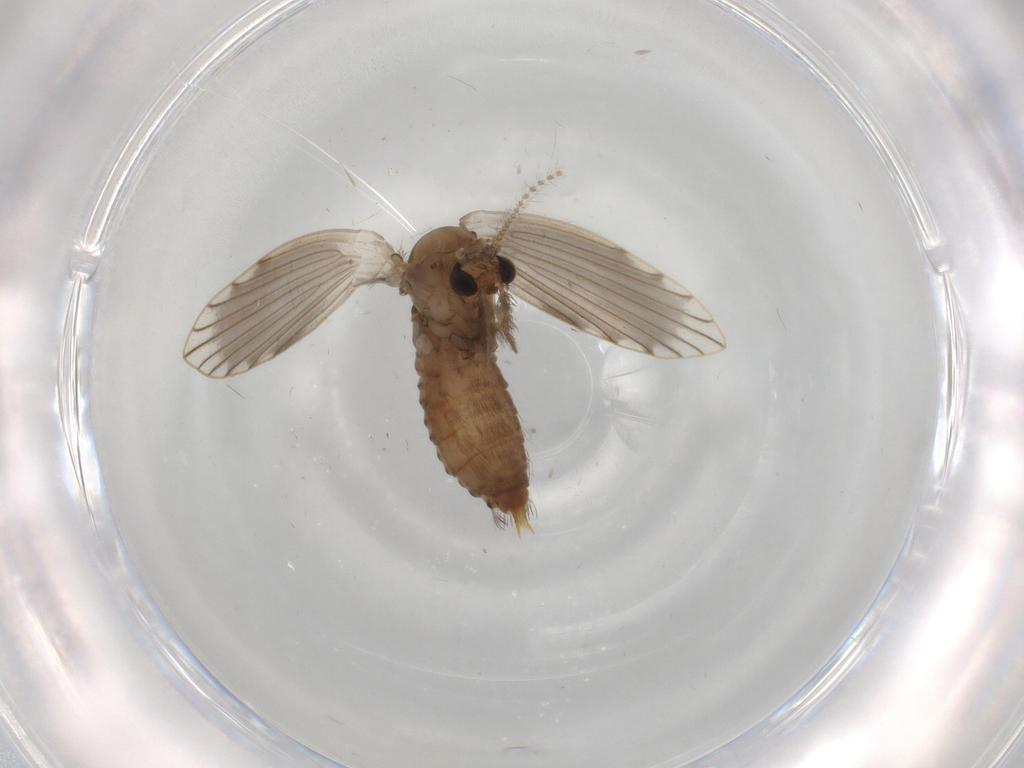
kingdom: Animalia
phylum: Arthropoda
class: Insecta
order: Diptera
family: Psychodidae
